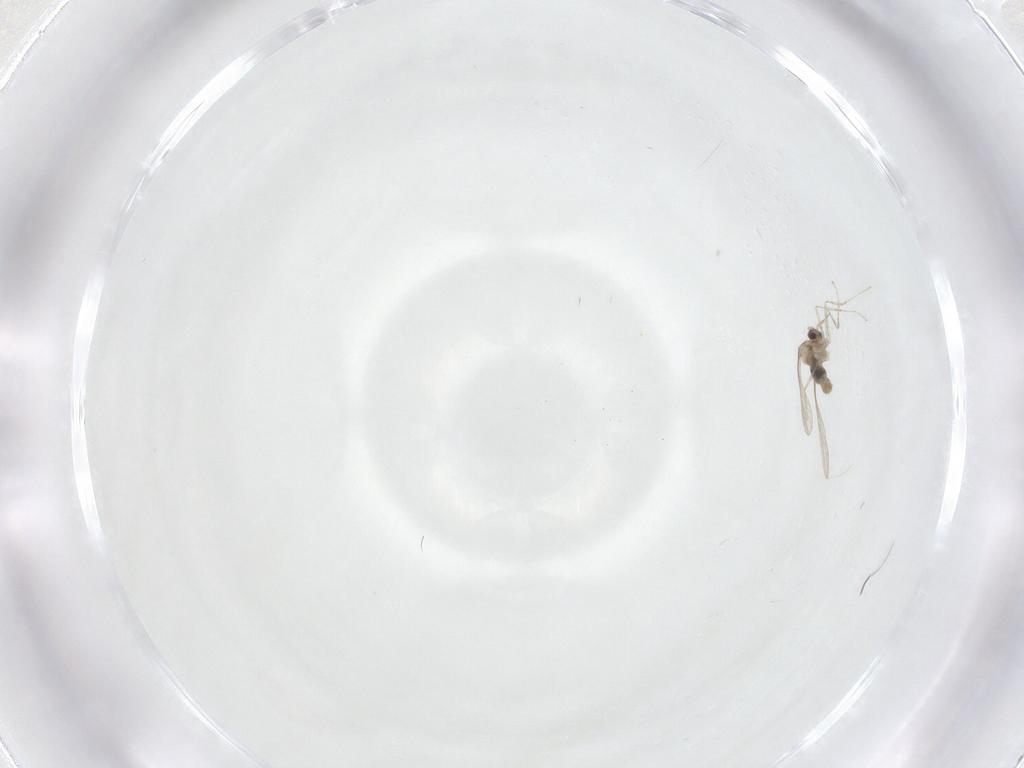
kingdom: Animalia
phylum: Arthropoda
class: Insecta
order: Diptera
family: Cecidomyiidae
